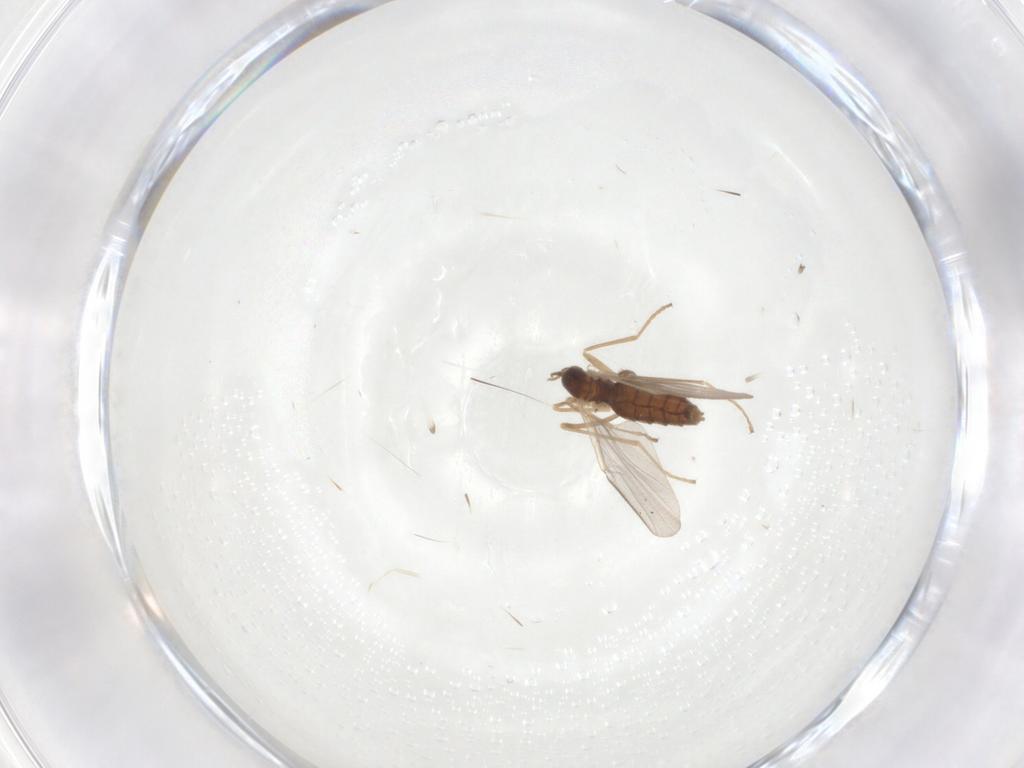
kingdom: Animalia
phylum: Arthropoda
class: Insecta
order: Diptera
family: Cecidomyiidae
